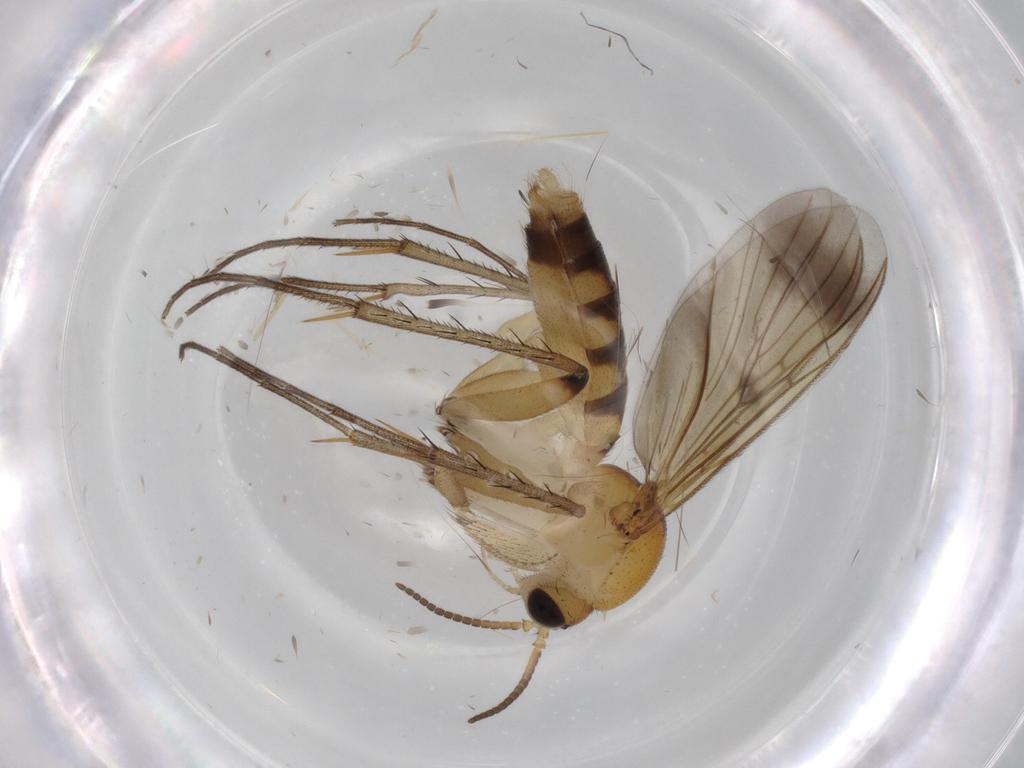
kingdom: Animalia
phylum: Arthropoda
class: Insecta
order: Diptera
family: Mycetophilidae
